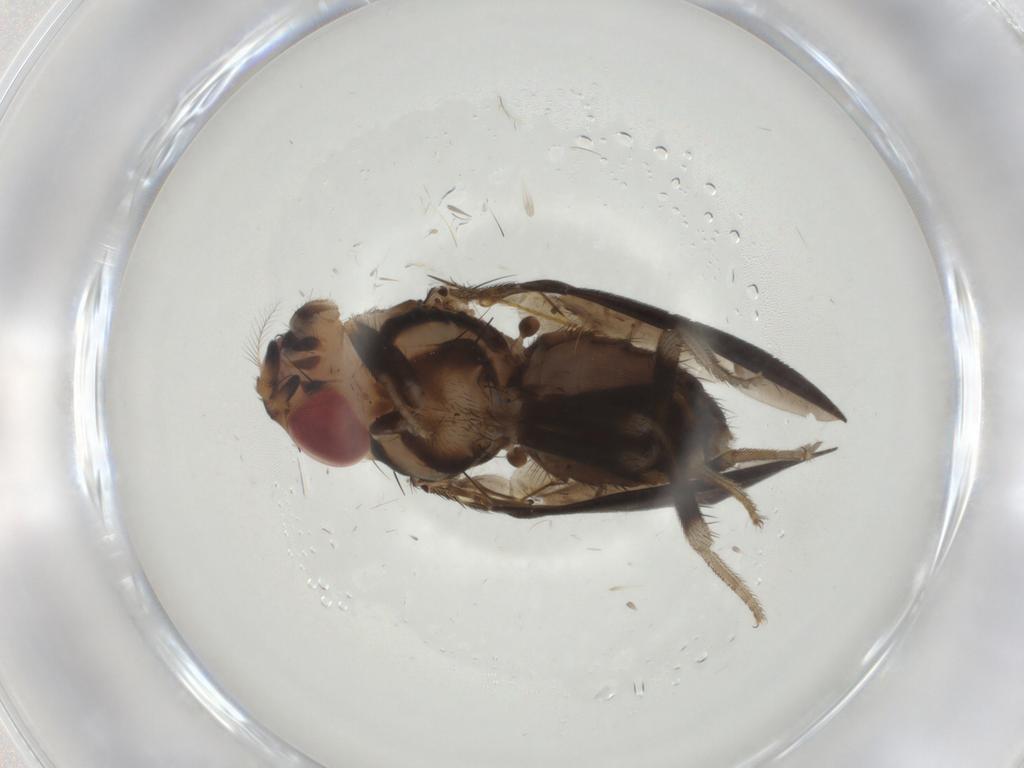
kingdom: Animalia
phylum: Arthropoda
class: Insecta
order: Diptera
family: Drosophilidae
